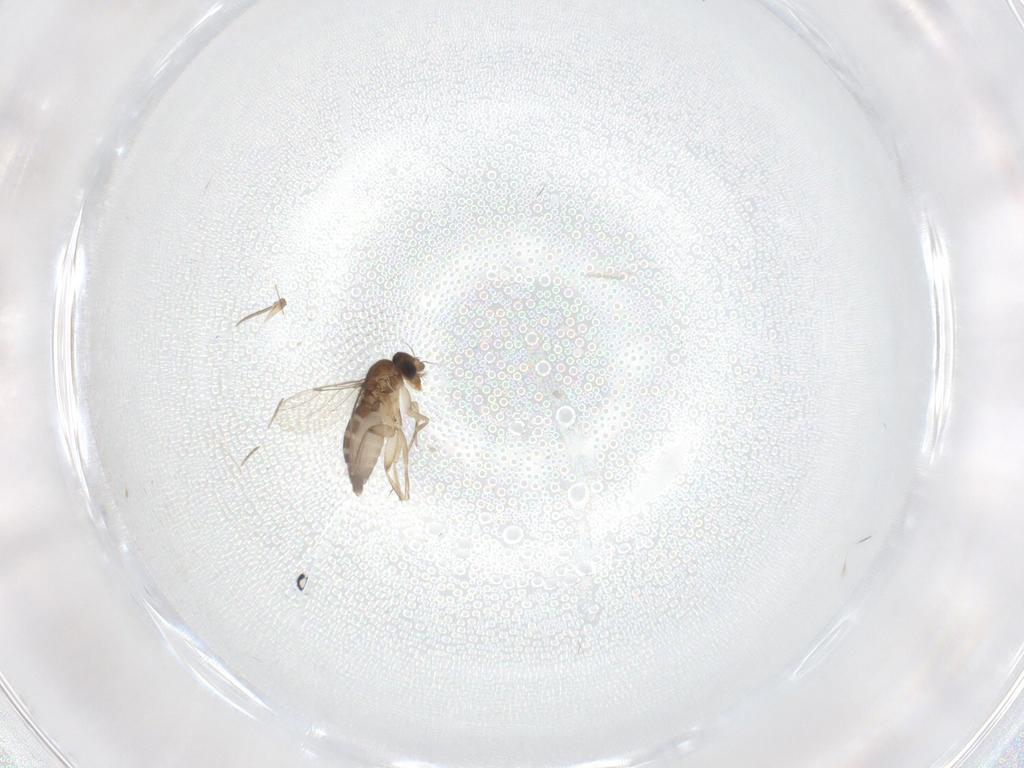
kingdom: Animalia
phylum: Arthropoda
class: Insecta
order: Diptera
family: Cecidomyiidae
